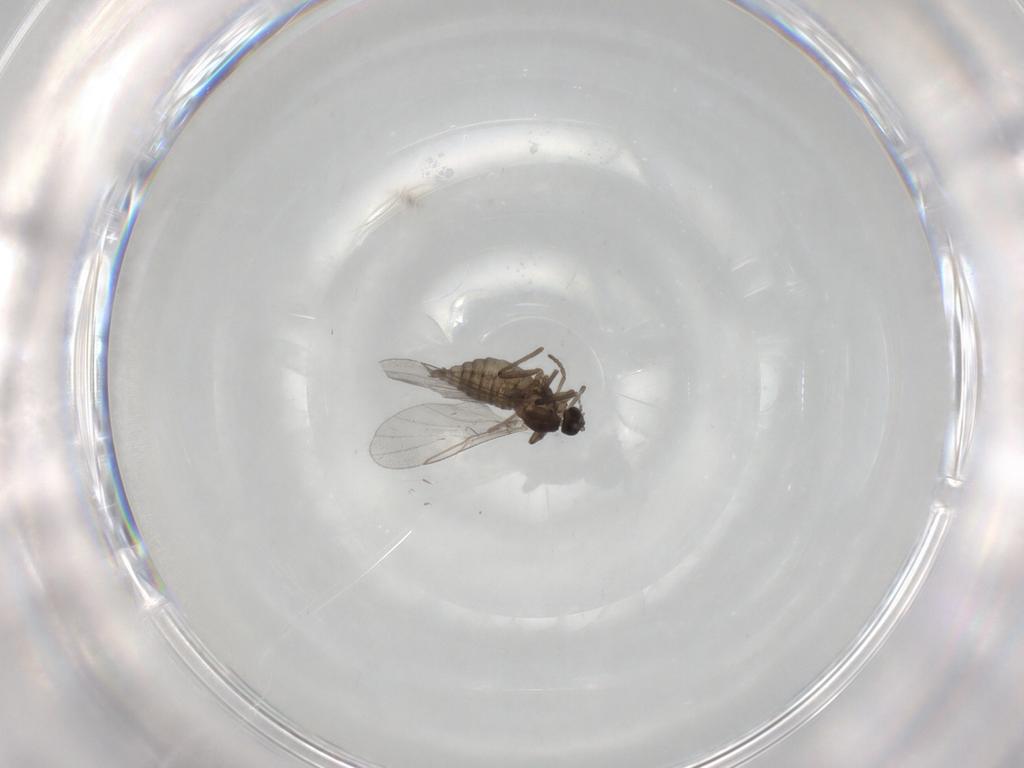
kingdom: Animalia
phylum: Arthropoda
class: Insecta
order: Diptera
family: Cecidomyiidae
